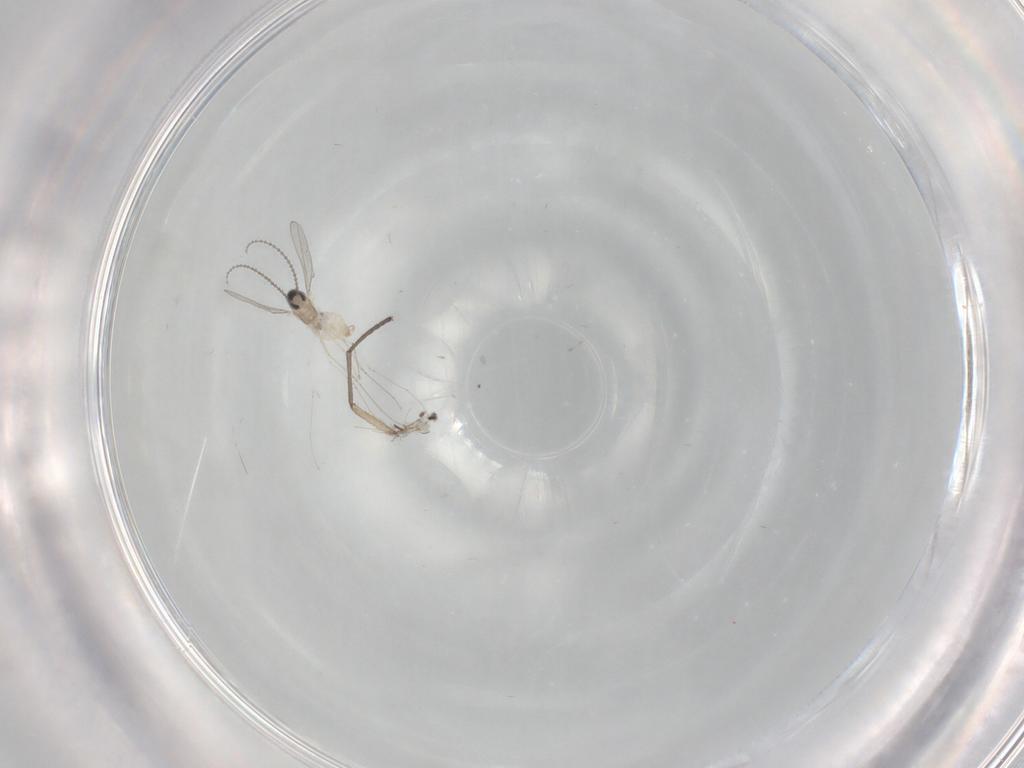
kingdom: Animalia
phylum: Arthropoda
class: Insecta
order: Diptera
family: Cecidomyiidae
